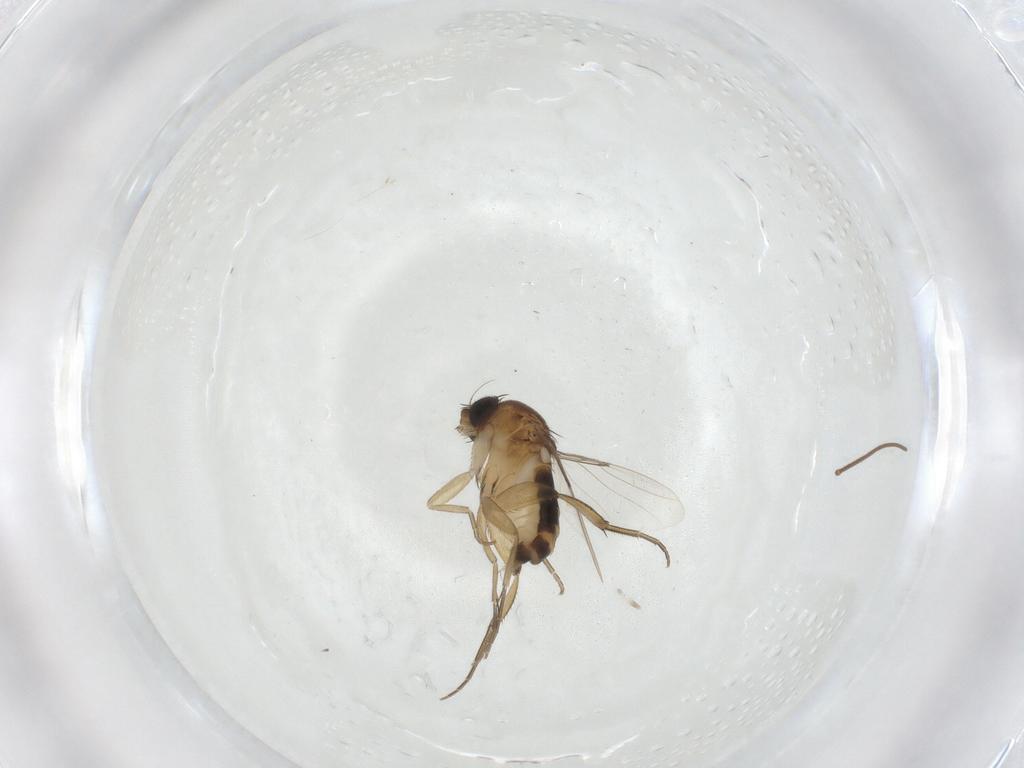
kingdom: Animalia
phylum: Arthropoda
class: Insecta
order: Diptera
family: Phoridae
